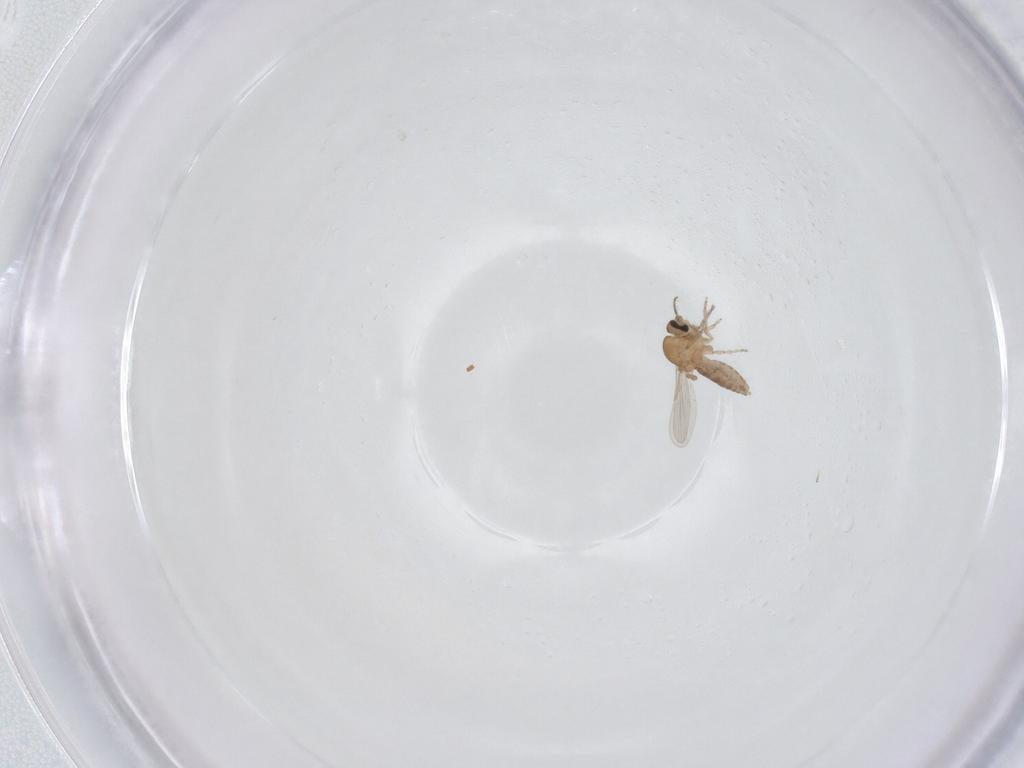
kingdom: Animalia
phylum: Arthropoda
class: Insecta
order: Diptera
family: Ceratopogonidae
